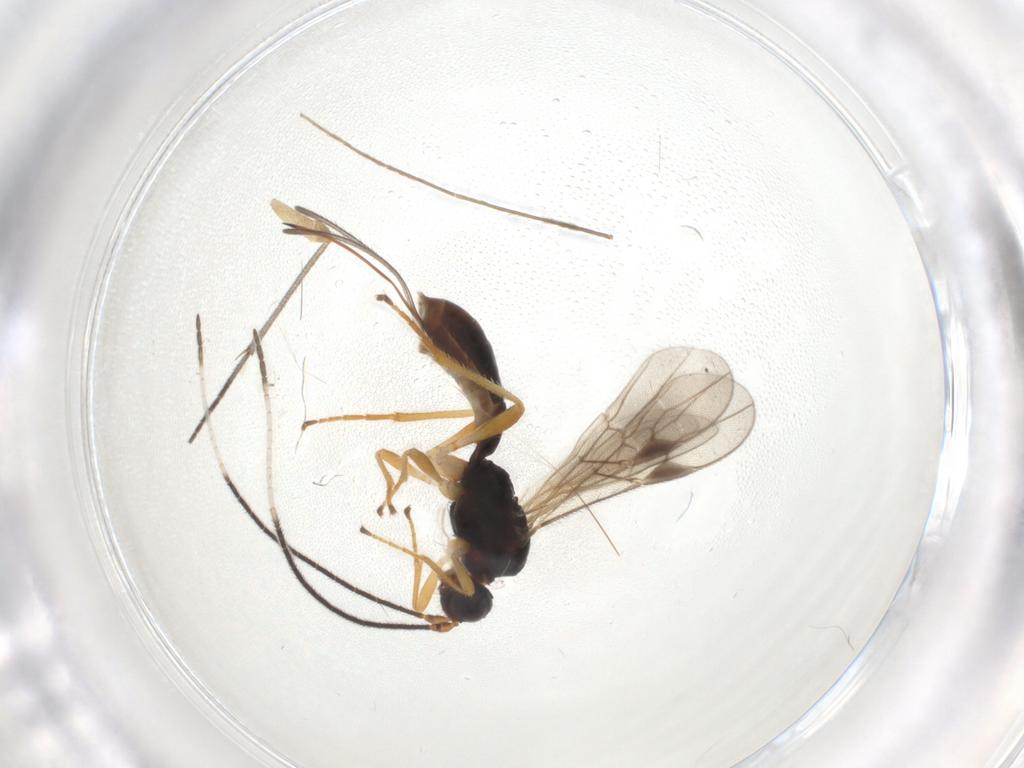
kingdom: Animalia
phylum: Arthropoda
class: Insecta
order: Hymenoptera
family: Braconidae
